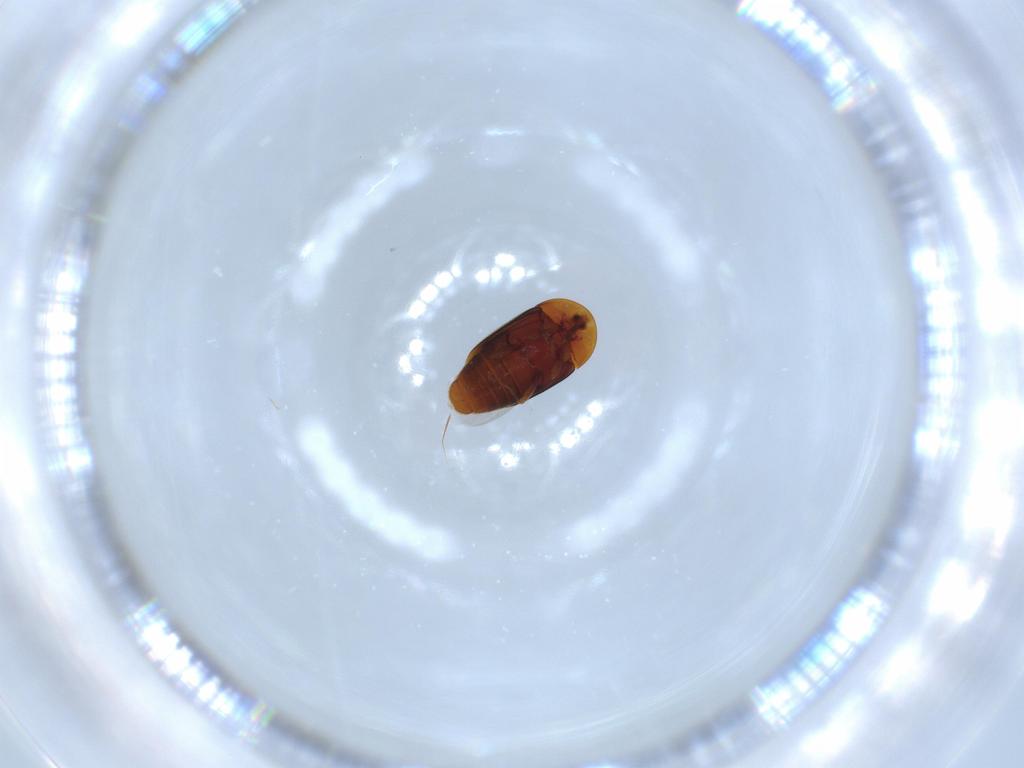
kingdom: Animalia
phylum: Arthropoda
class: Insecta
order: Coleoptera
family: Corylophidae
